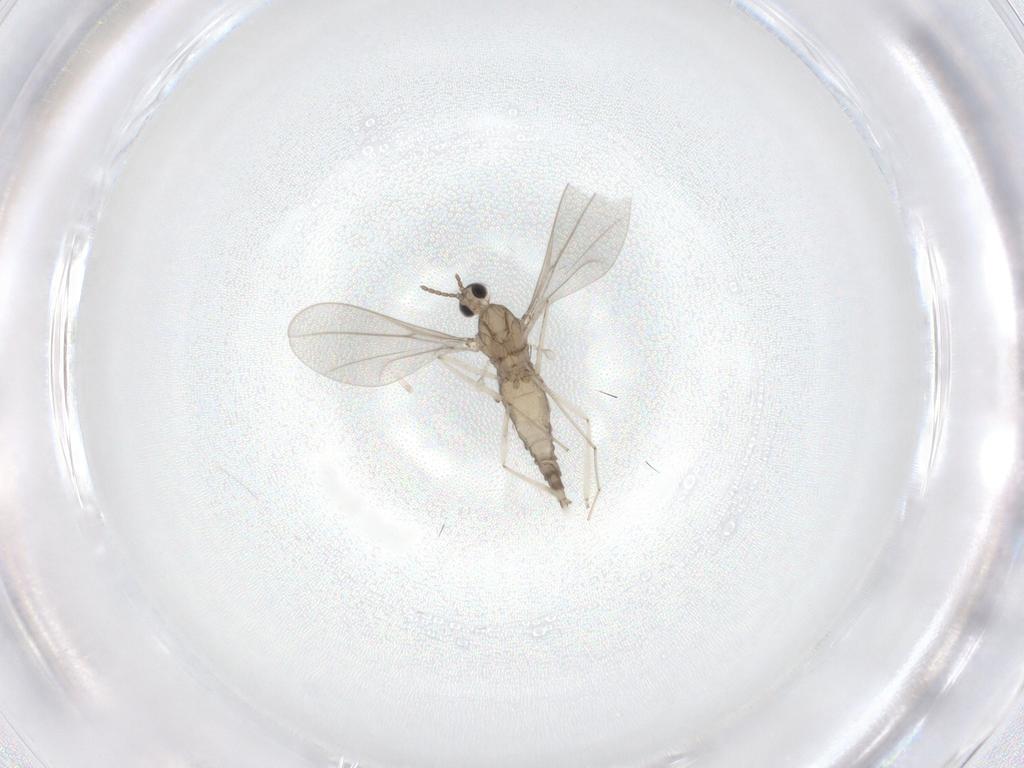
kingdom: Animalia
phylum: Arthropoda
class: Insecta
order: Diptera
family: Cecidomyiidae
